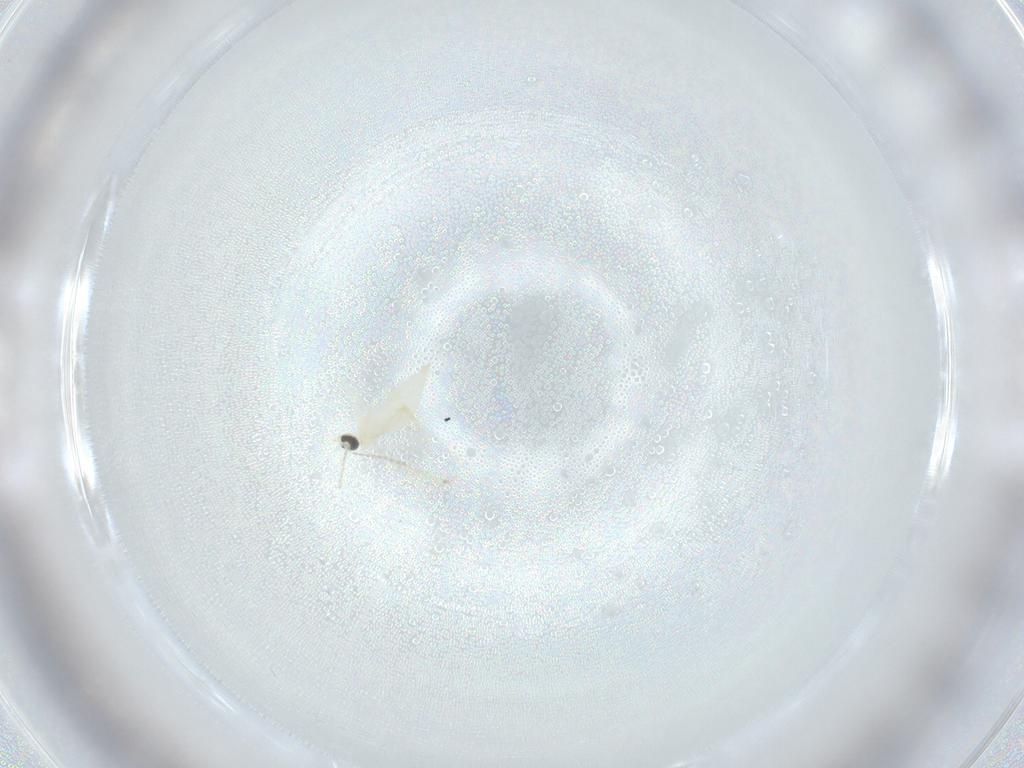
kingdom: Animalia
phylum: Arthropoda
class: Insecta
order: Diptera
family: Cecidomyiidae
